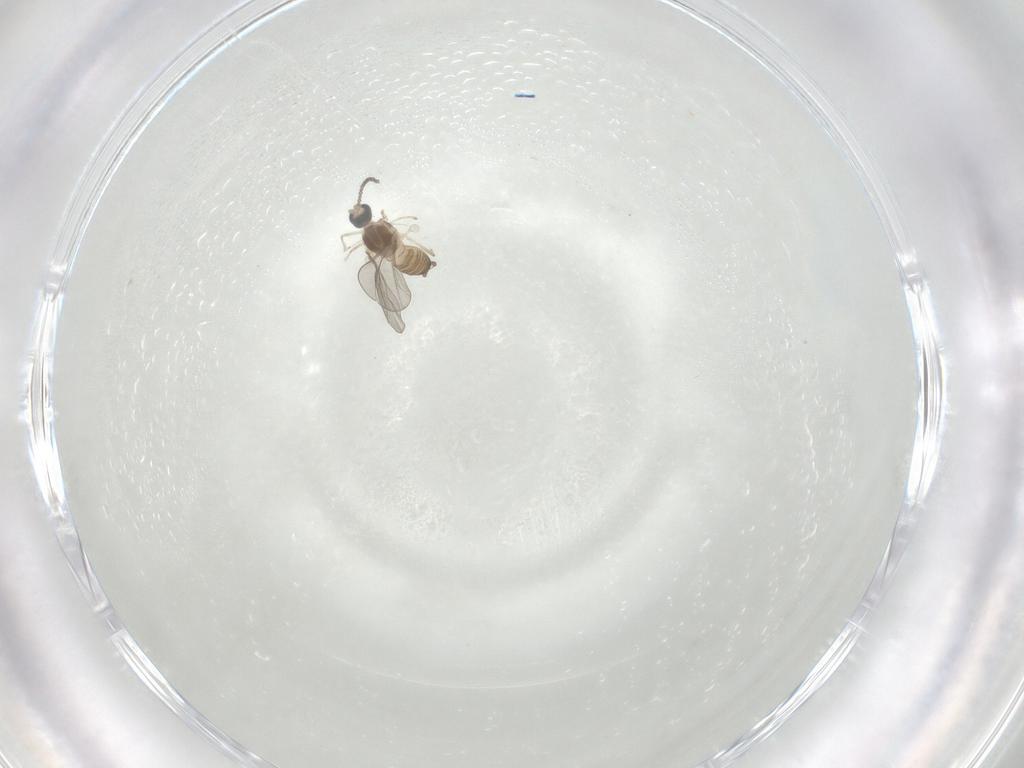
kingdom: Animalia
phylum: Arthropoda
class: Insecta
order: Diptera
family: Cecidomyiidae
